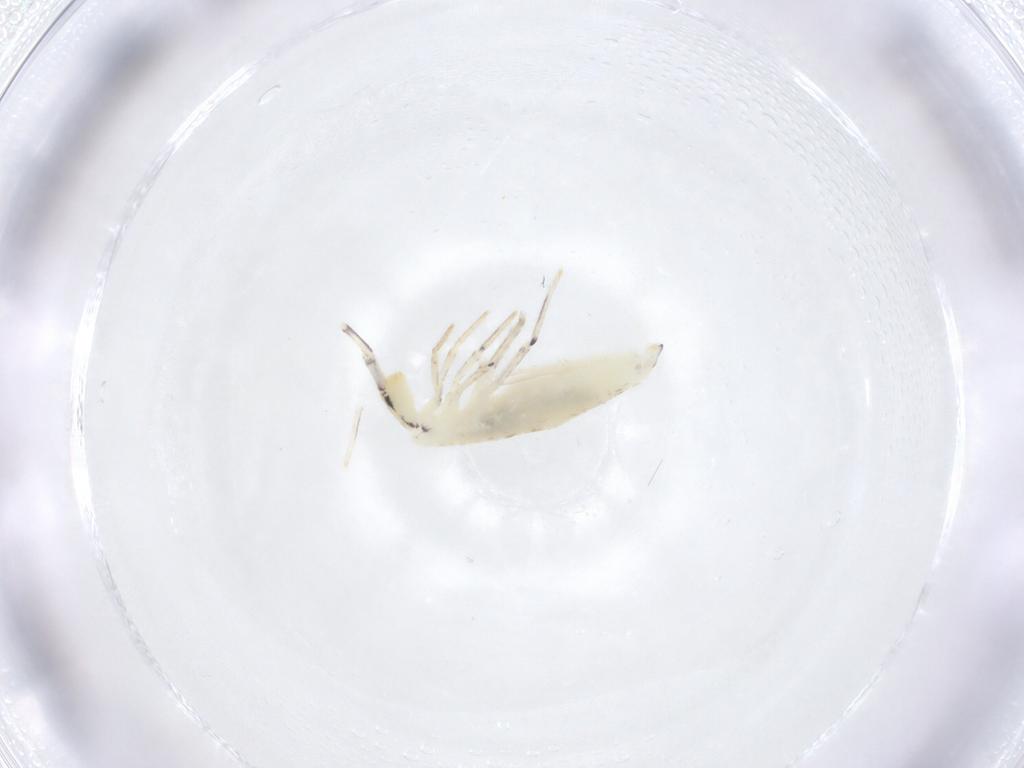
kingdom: Animalia
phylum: Arthropoda
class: Collembola
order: Entomobryomorpha
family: Entomobryidae
